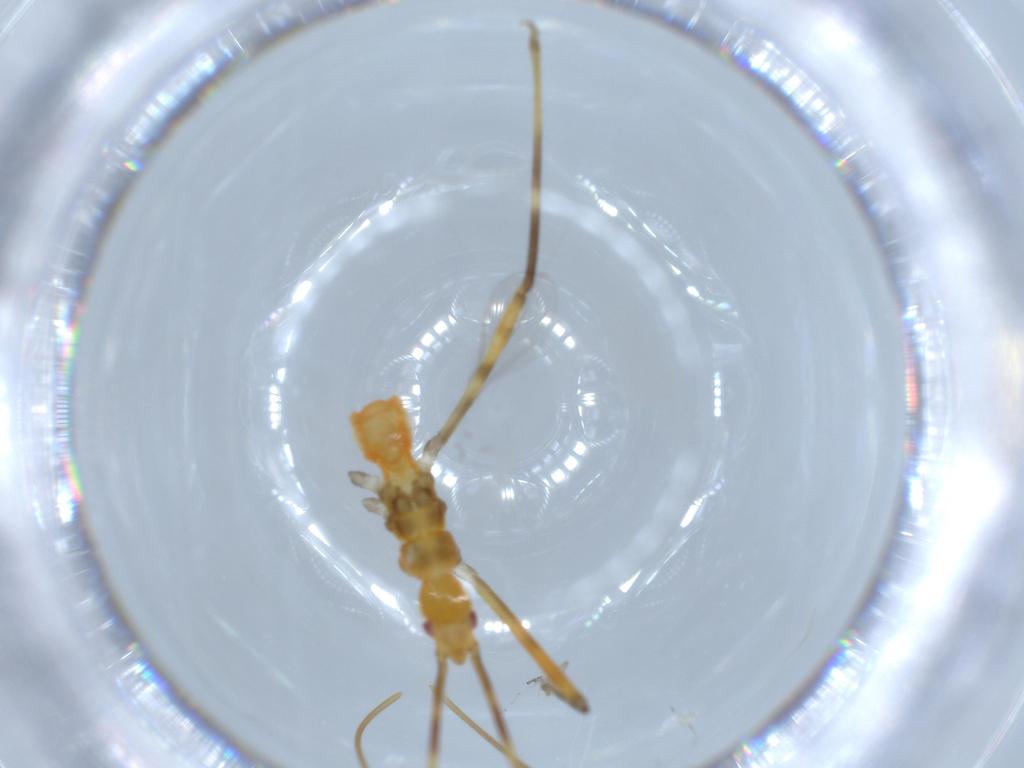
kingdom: Animalia
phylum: Arthropoda
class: Insecta
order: Hemiptera
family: Reduviidae
